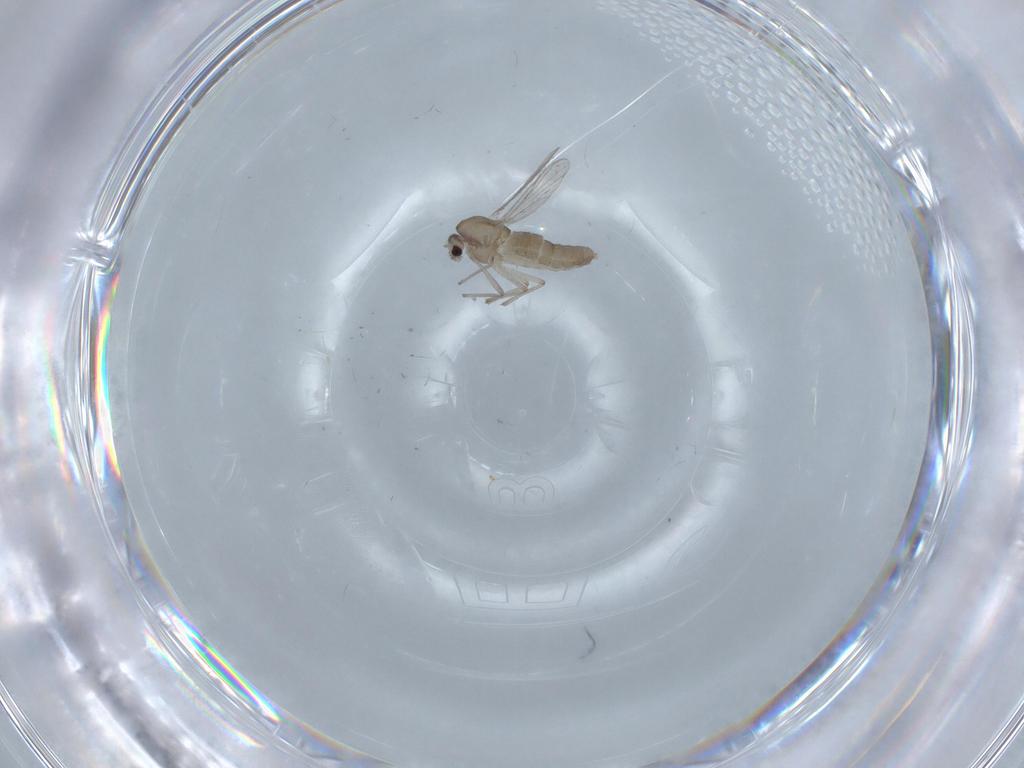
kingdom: Animalia
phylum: Arthropoda
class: Insecta
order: Diptera
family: Chironomidae
